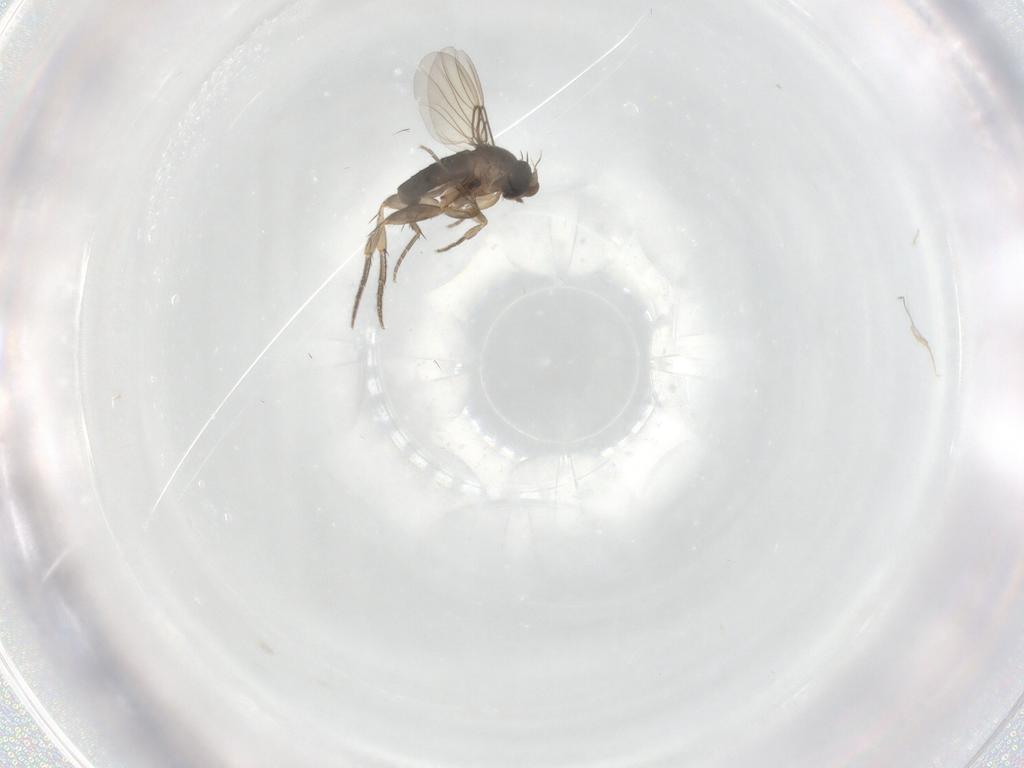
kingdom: Animalia
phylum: Arthropoda
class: Insecta
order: Diptera
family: Phoridae
